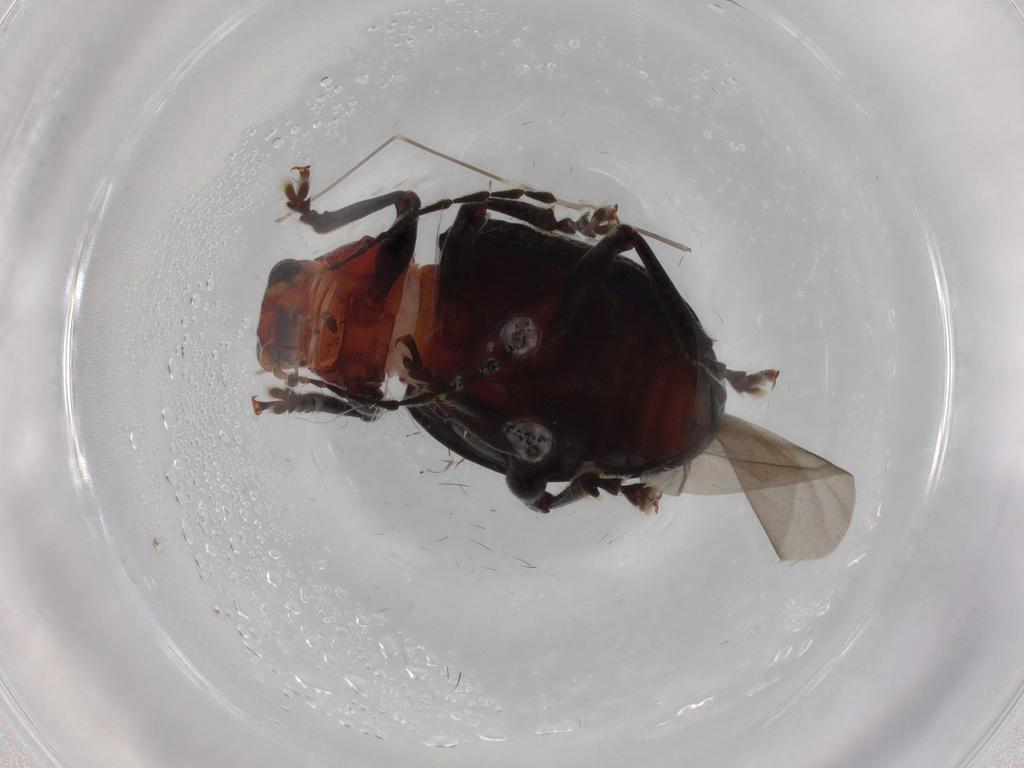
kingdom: Animalia
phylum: Arthropoda
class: Insecta
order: Coleoptera
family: Chrysomelidae
